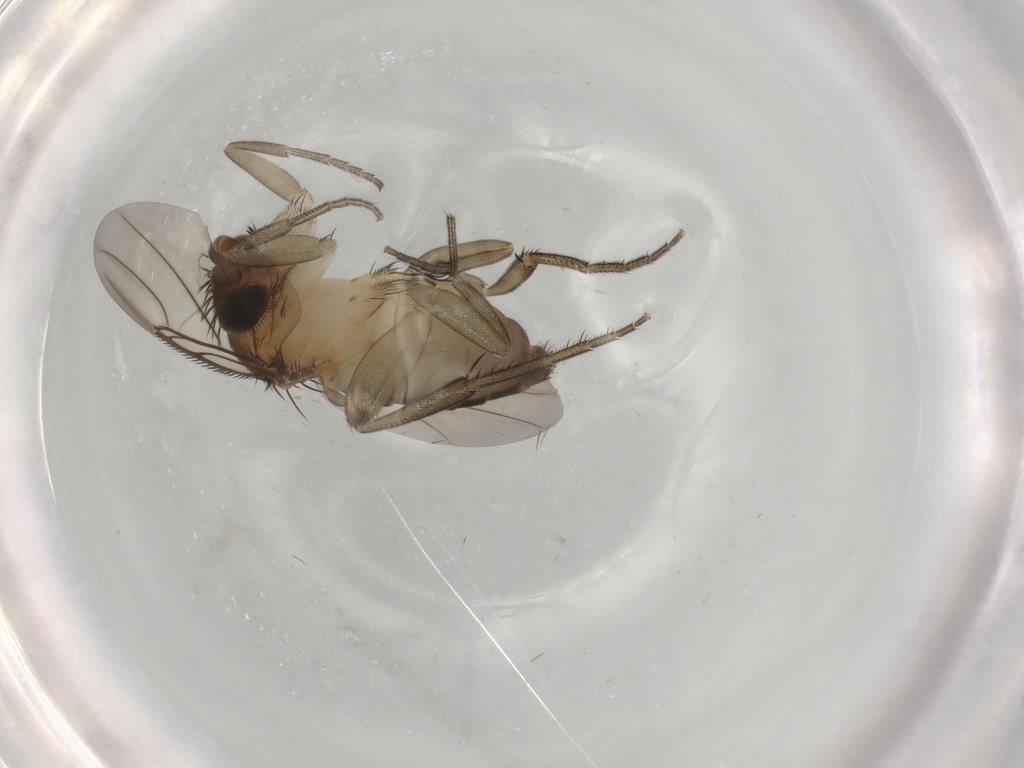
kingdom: Animalia
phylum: Arthropoda
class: Insecta
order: Diptera
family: Phoridae
